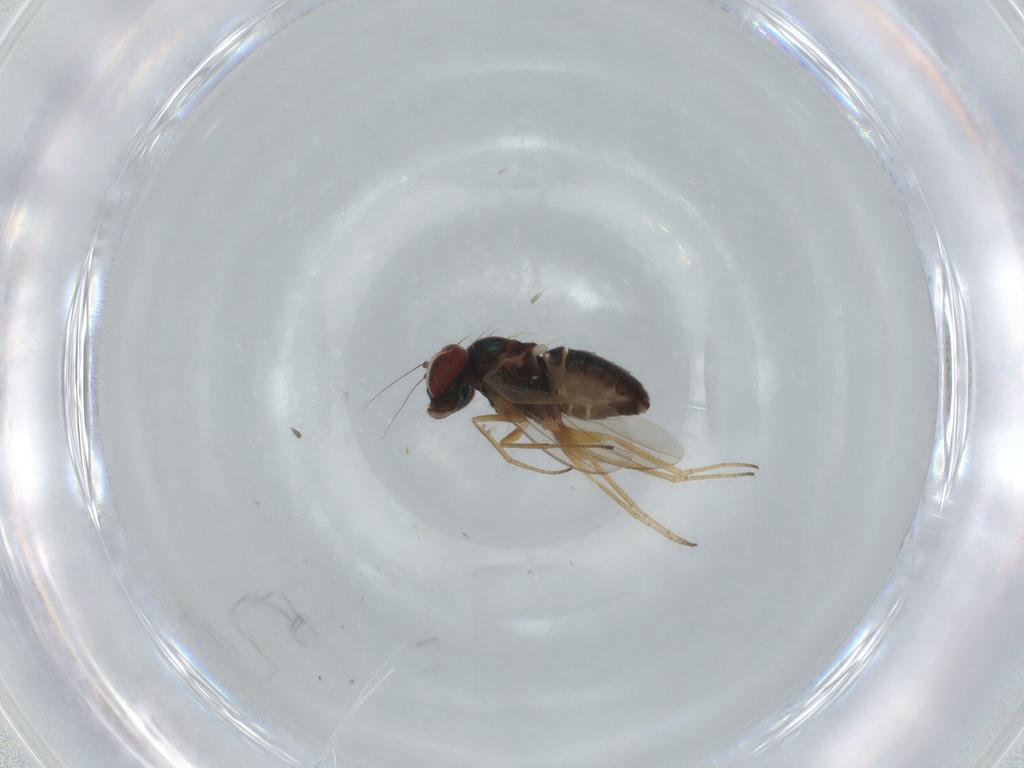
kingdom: Animalia
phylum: Arthropoda
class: Insecta
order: Diptera
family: Dolichopodidae
